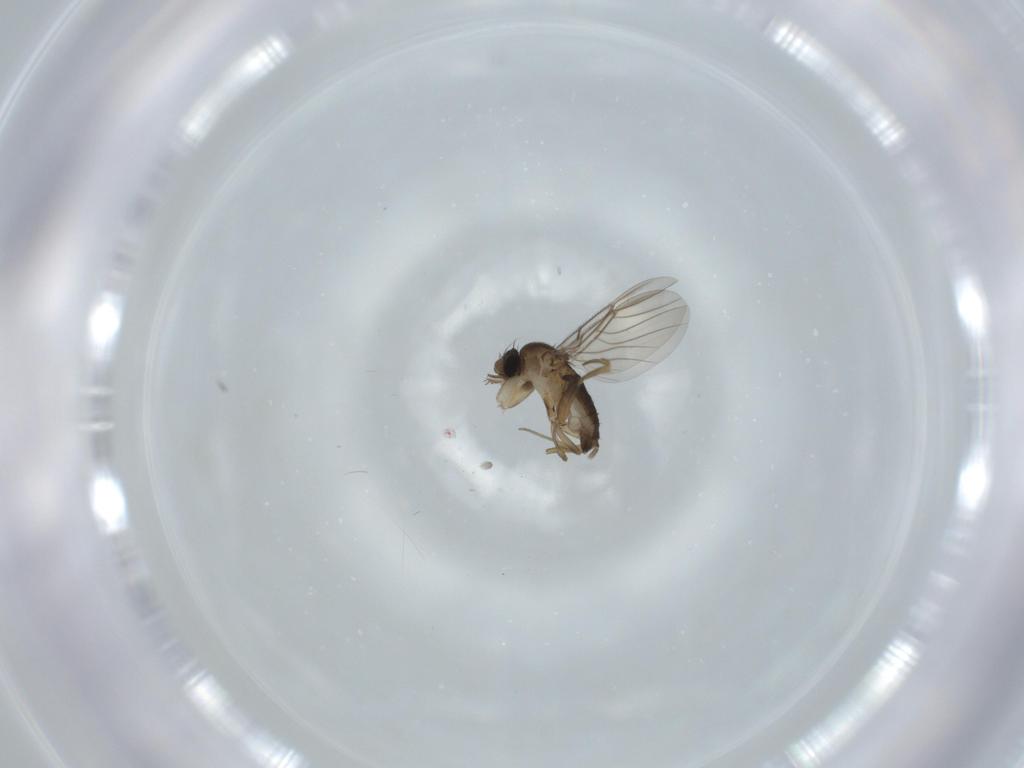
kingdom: Animalia
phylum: Arthropoda
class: Insecta
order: Diptera
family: Phoridae
